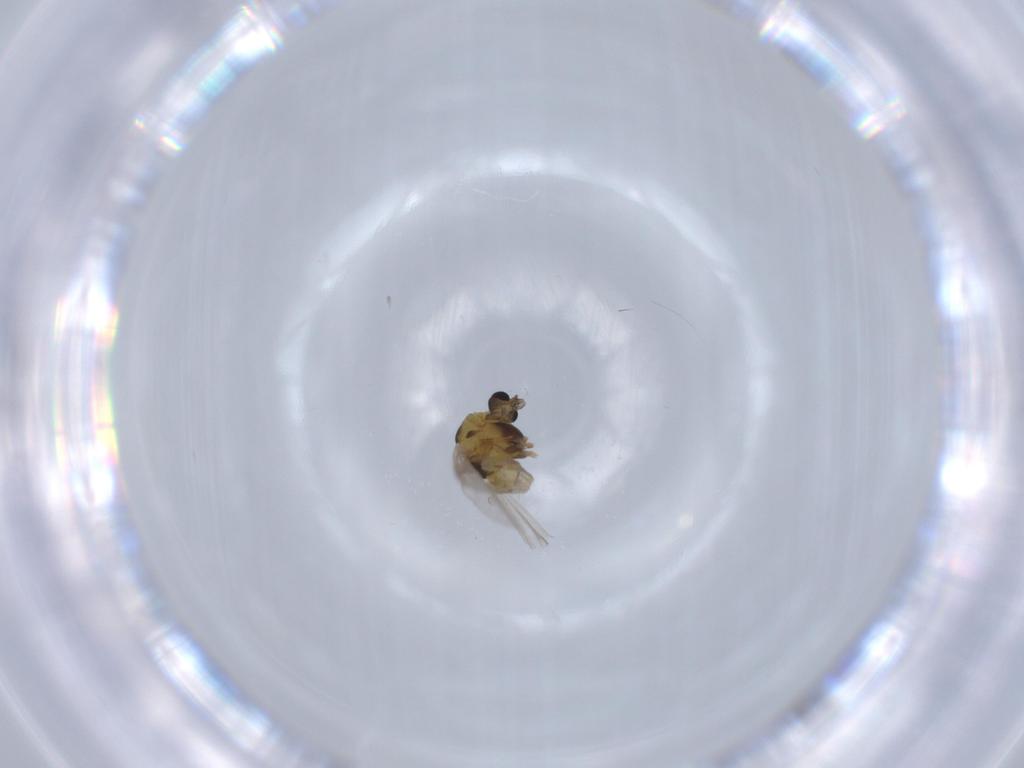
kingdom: Animalia
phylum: Arthropoda
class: Insecta
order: Diptera
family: Chironomidae
